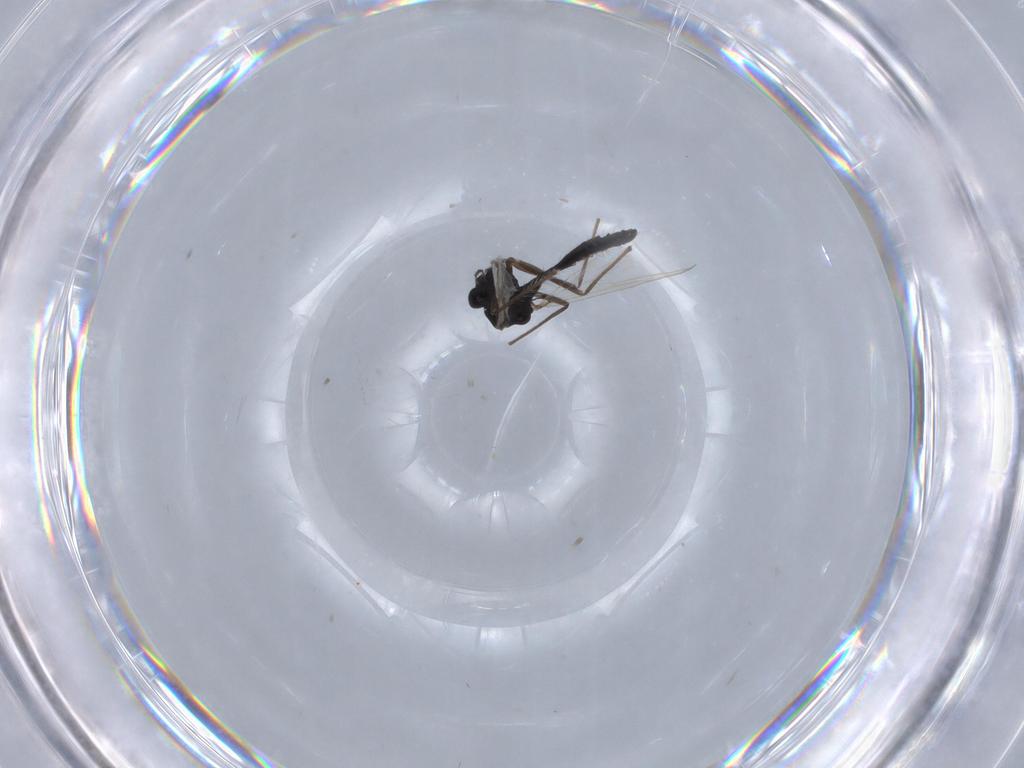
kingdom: Animalia
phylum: Arthropoda
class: Insecta
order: Diptera
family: Chironomidae
